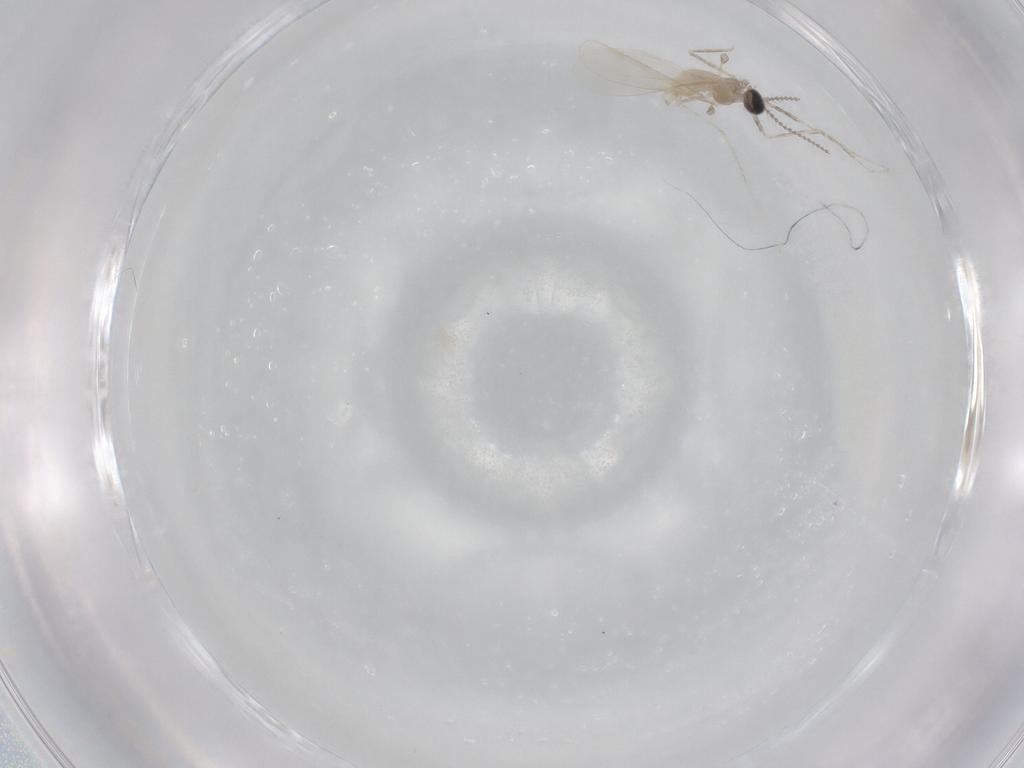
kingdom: Animalia
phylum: Arthropoda
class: Insecta
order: Diptera
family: Cecidomyiidae
